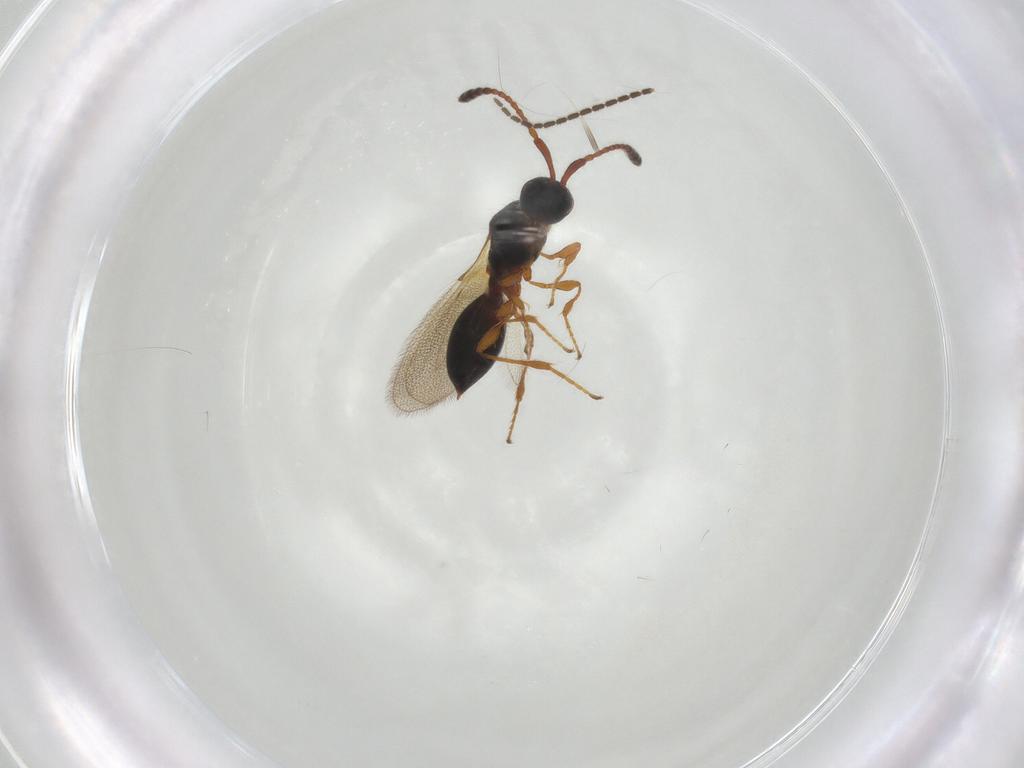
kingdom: Animalia
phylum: Arthropoda
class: Insecta
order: Hymenoptera
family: Diapriidae
